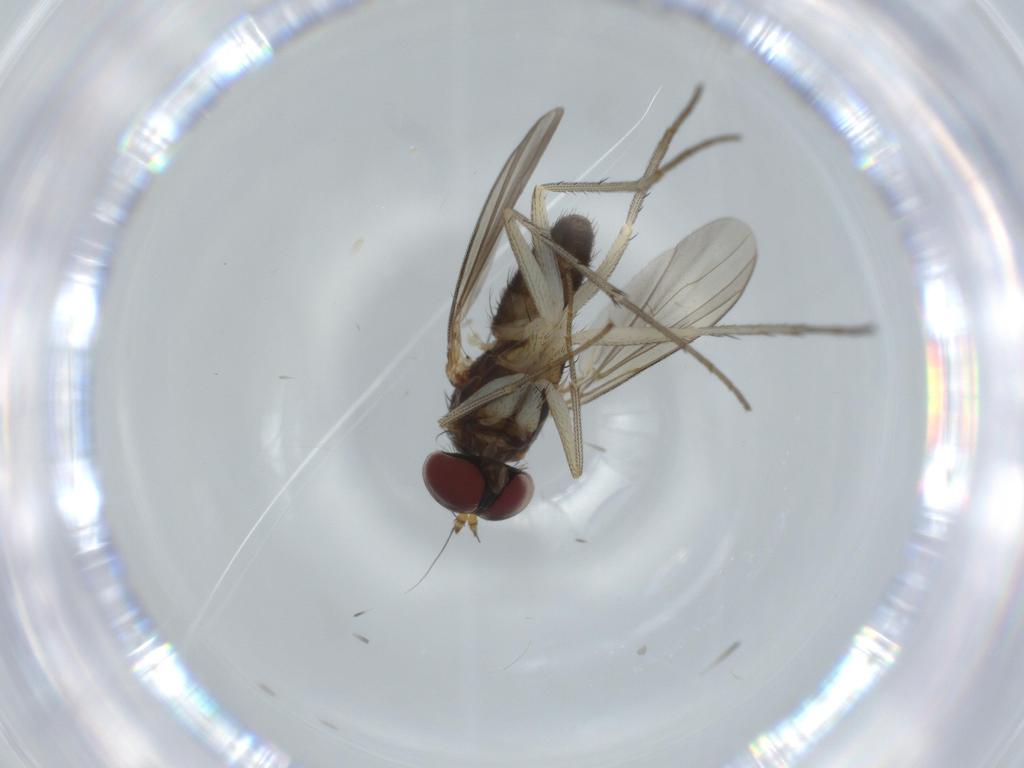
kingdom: Animalia
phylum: Arthropoda
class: Insecta
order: Diptera
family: Dolichopodidae
